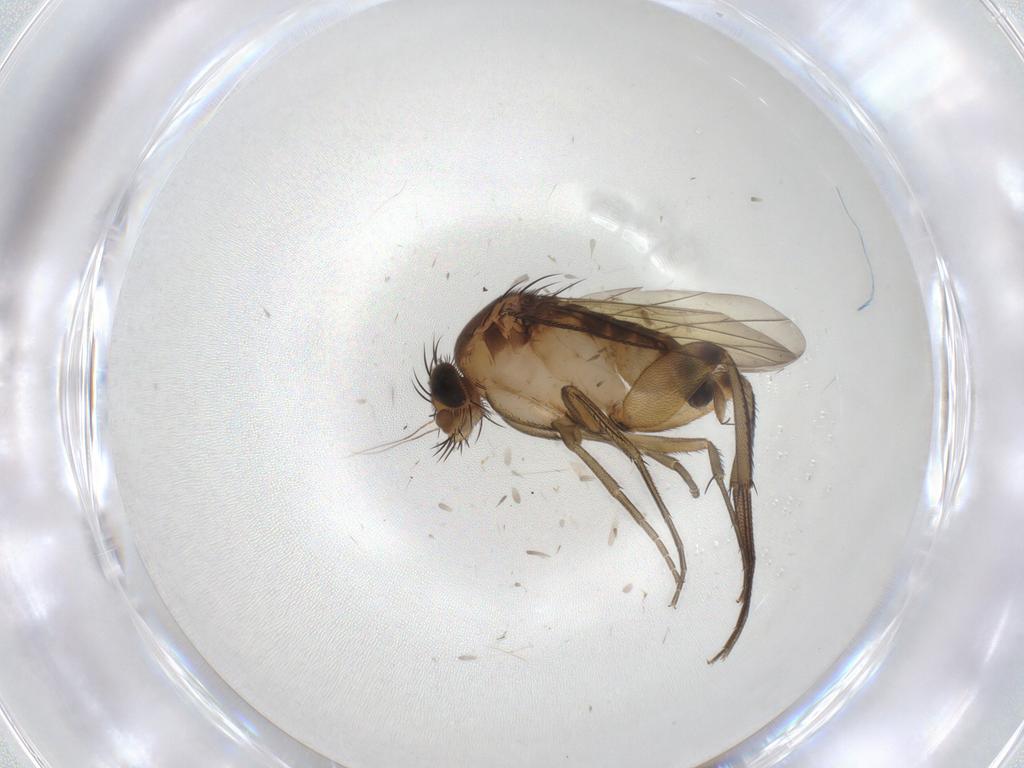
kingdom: Animalia
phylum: Arthropoda
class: Insecta
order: Diptera
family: Phoridae
